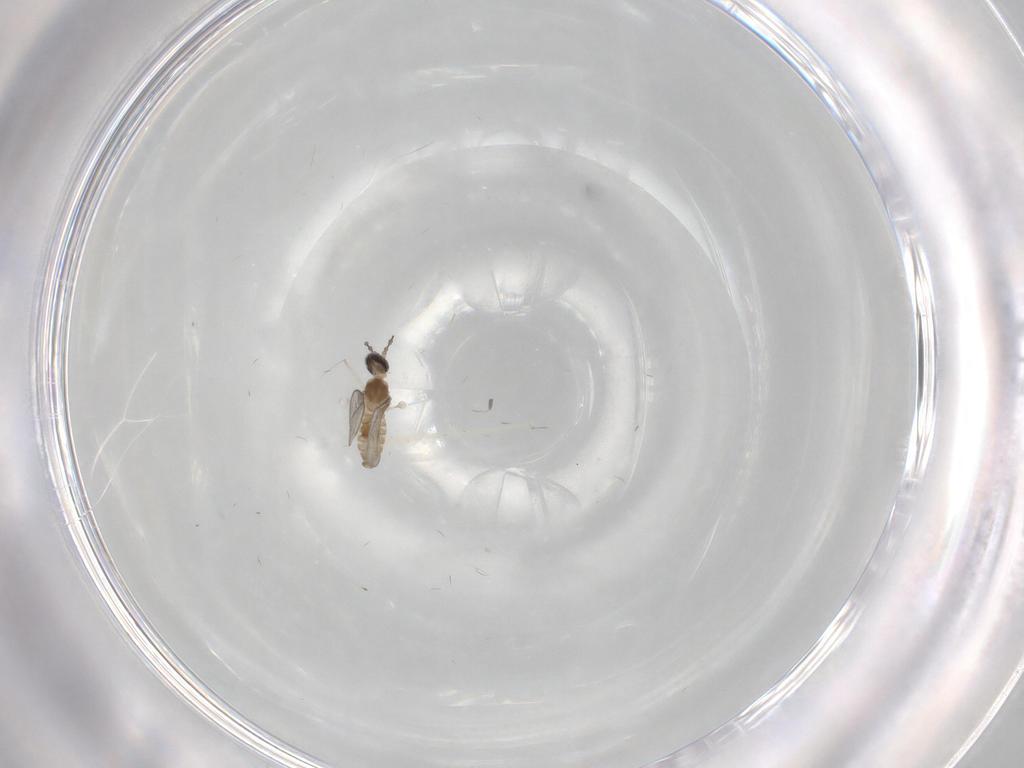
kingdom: Animalia
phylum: Arthropoda
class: Insecta
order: Diptera
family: Cecidomyiidae
